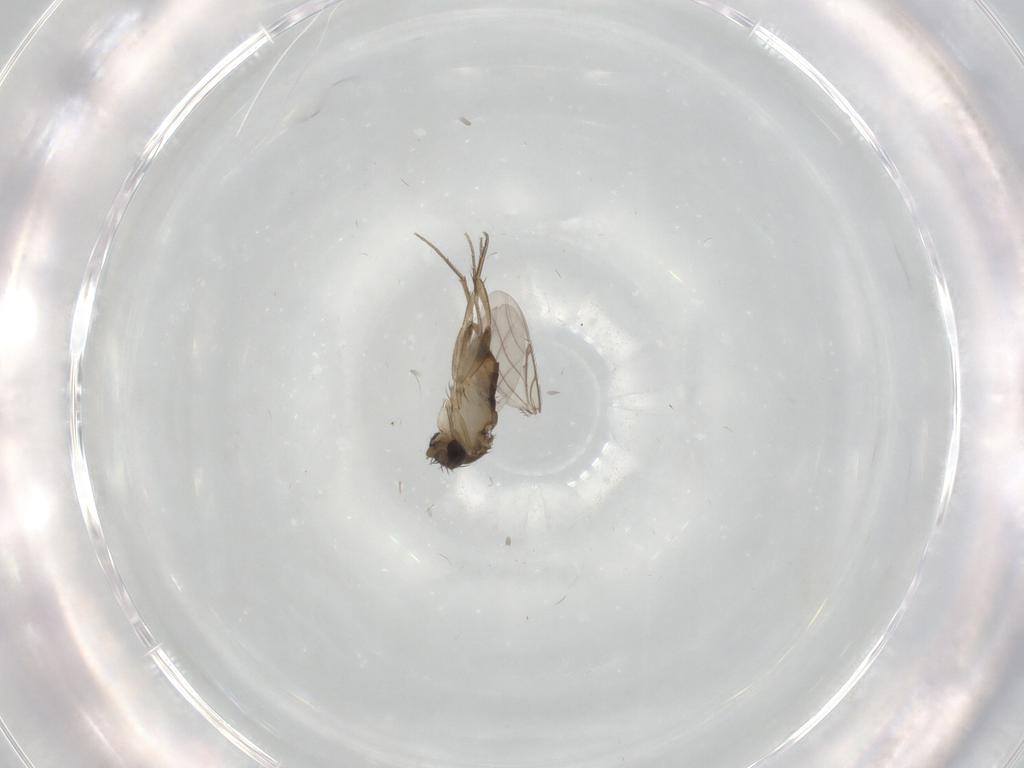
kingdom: Animalia
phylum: Arthropoda
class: Insecta
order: Diptera
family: Phoridae
